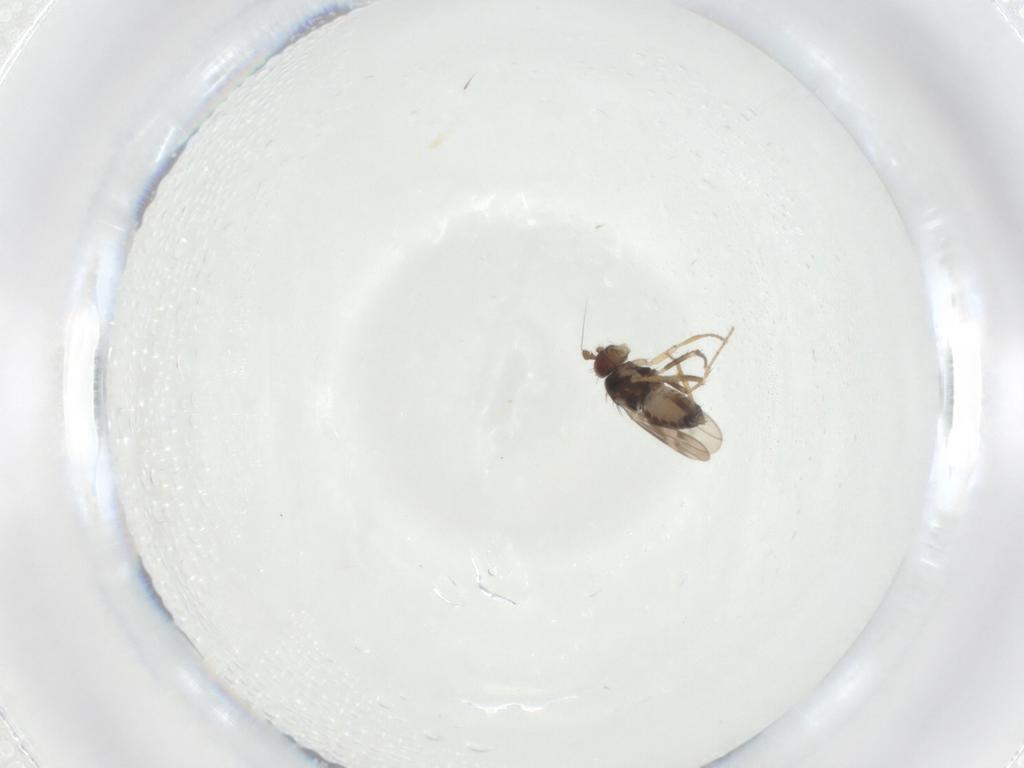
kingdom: Animalia
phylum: Arthropoda
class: Insecta
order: Diptera
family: Sphaeroceridae
